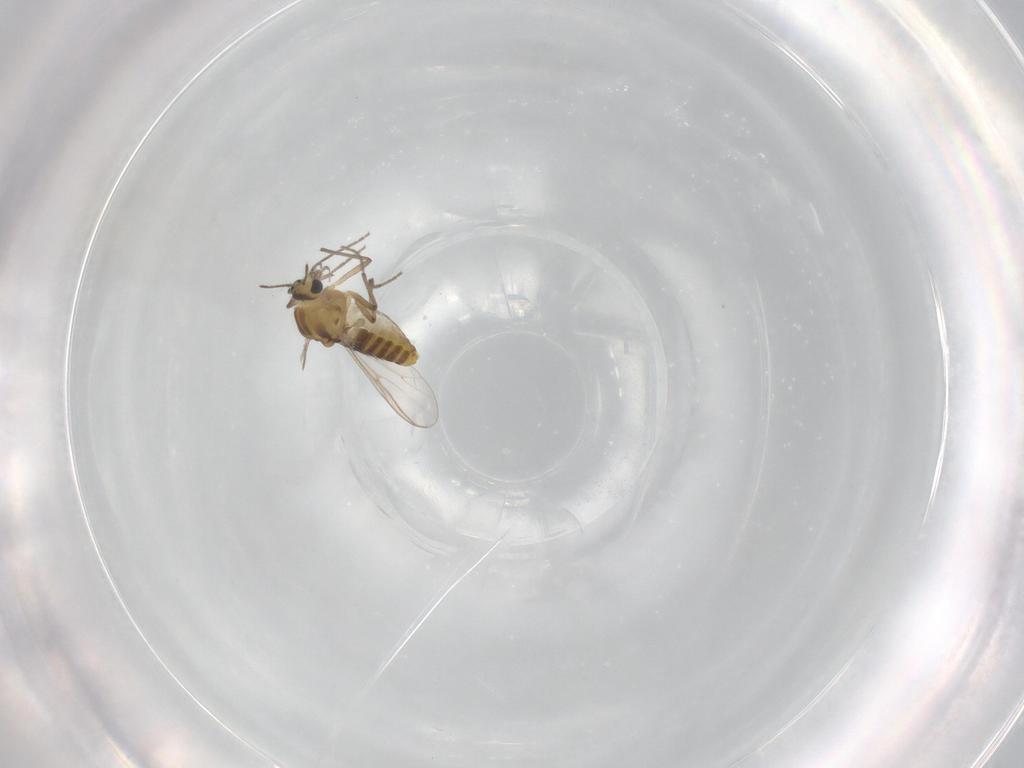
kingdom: Animalia
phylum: Arthropoda
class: Insecta
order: Diptera
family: Chironomidae
